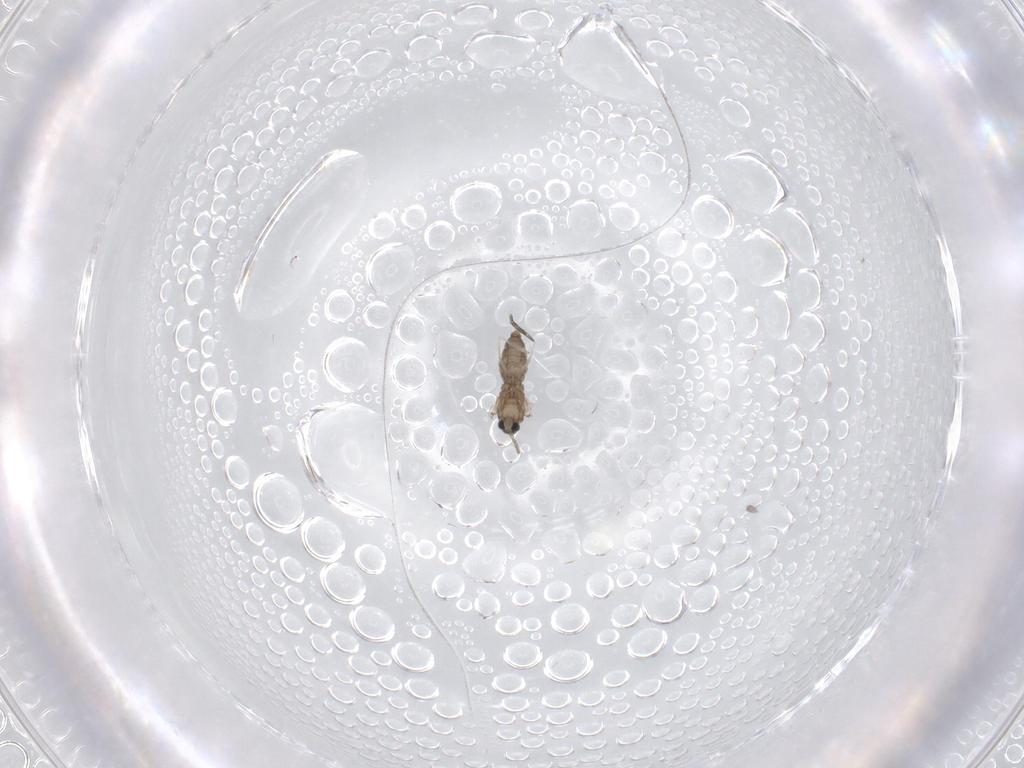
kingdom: Animalia
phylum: Arthropoda
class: Insecta
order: Diptera
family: Cecidomyiidae
